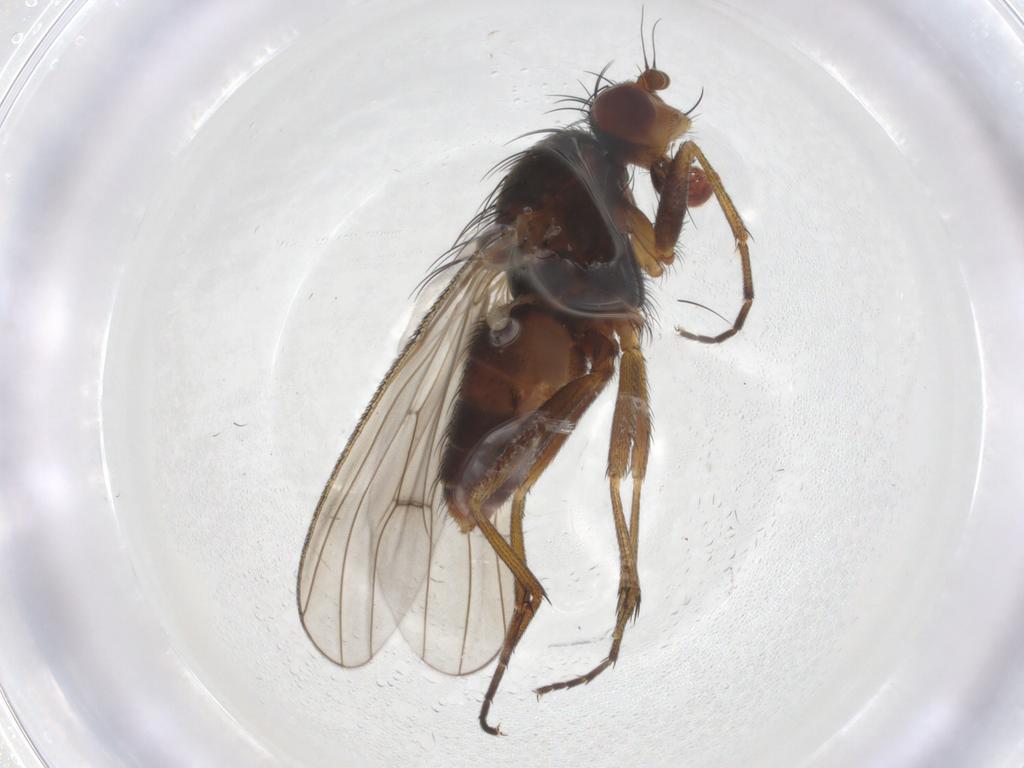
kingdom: Animalia
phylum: Arthropoda
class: Insecta
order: Diptera
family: Heleomyzidae
